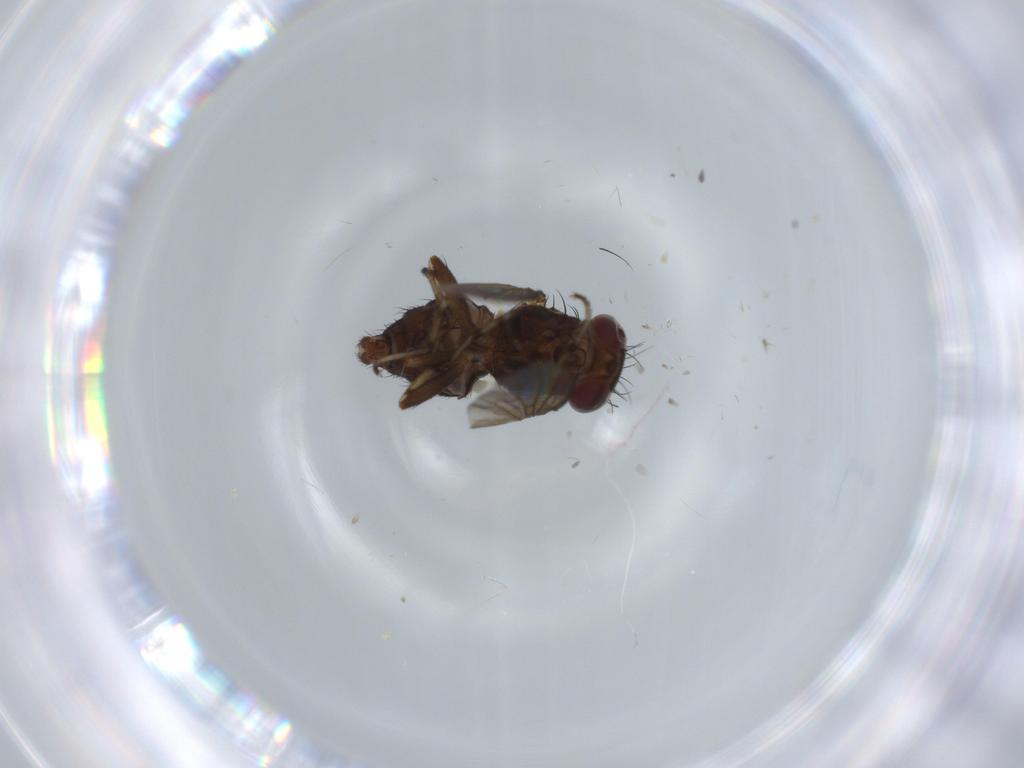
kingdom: Animalia
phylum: Arthropoda
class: Insecta
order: Diptera
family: Heleomyzidae
